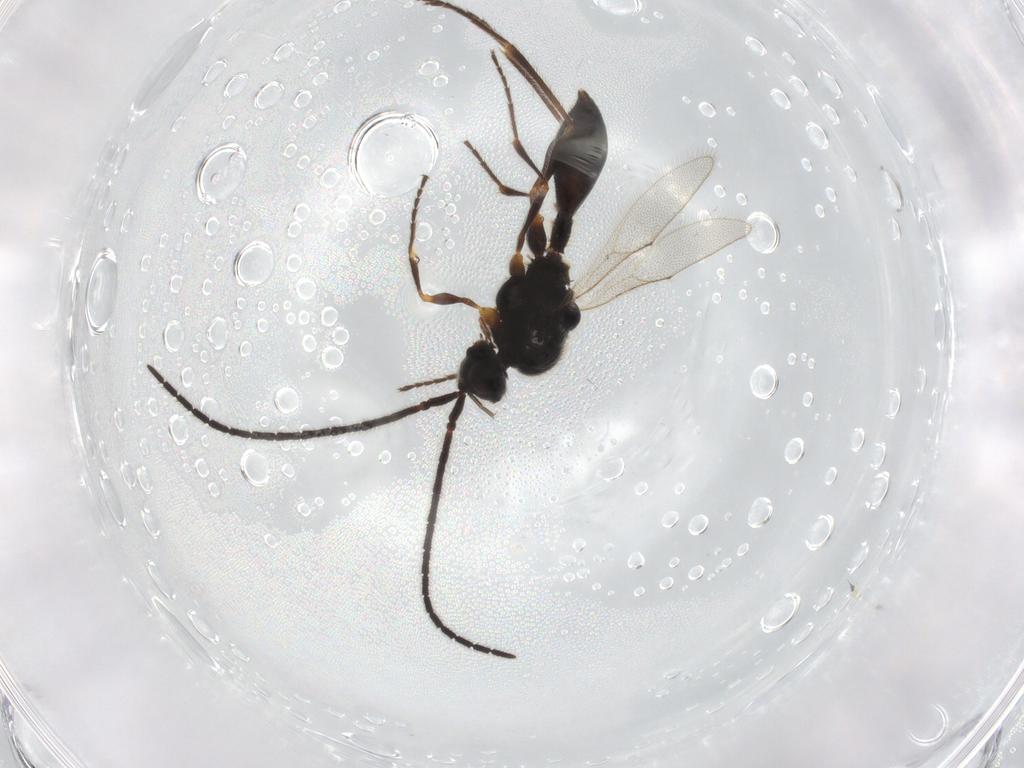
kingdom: Animalia
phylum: Arthropoda
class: Insecta
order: Hymenoptera
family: Diapriidae
